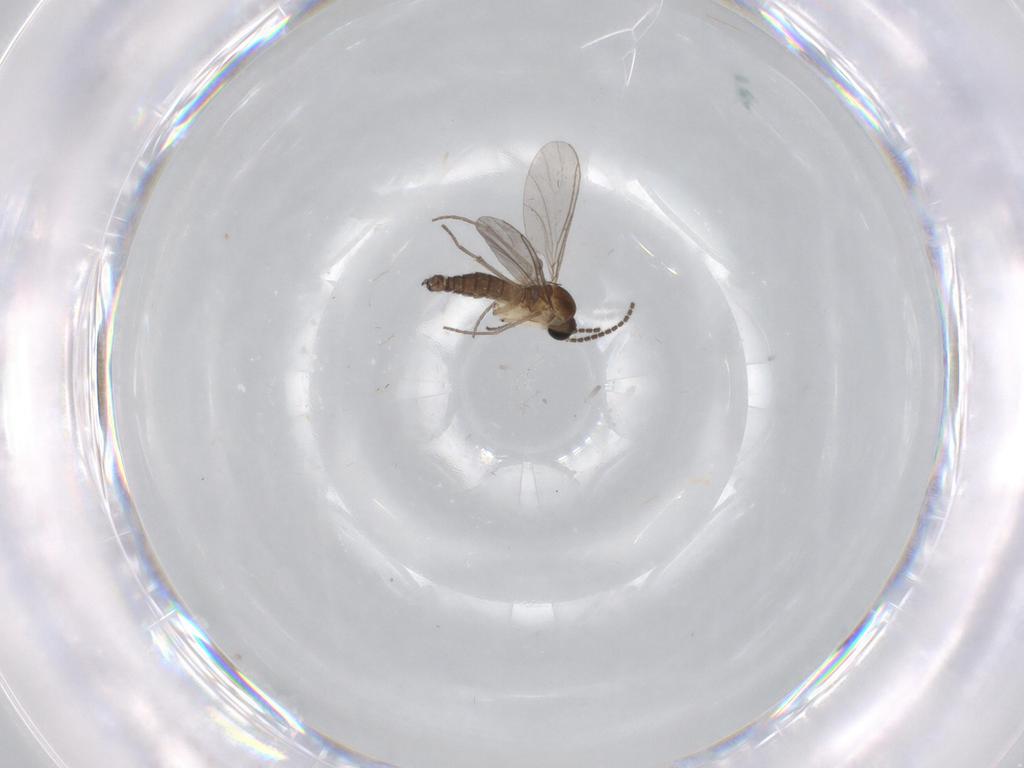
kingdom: Animalia
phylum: Arthropoda
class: Insecta
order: Diptera
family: Sciaridae
